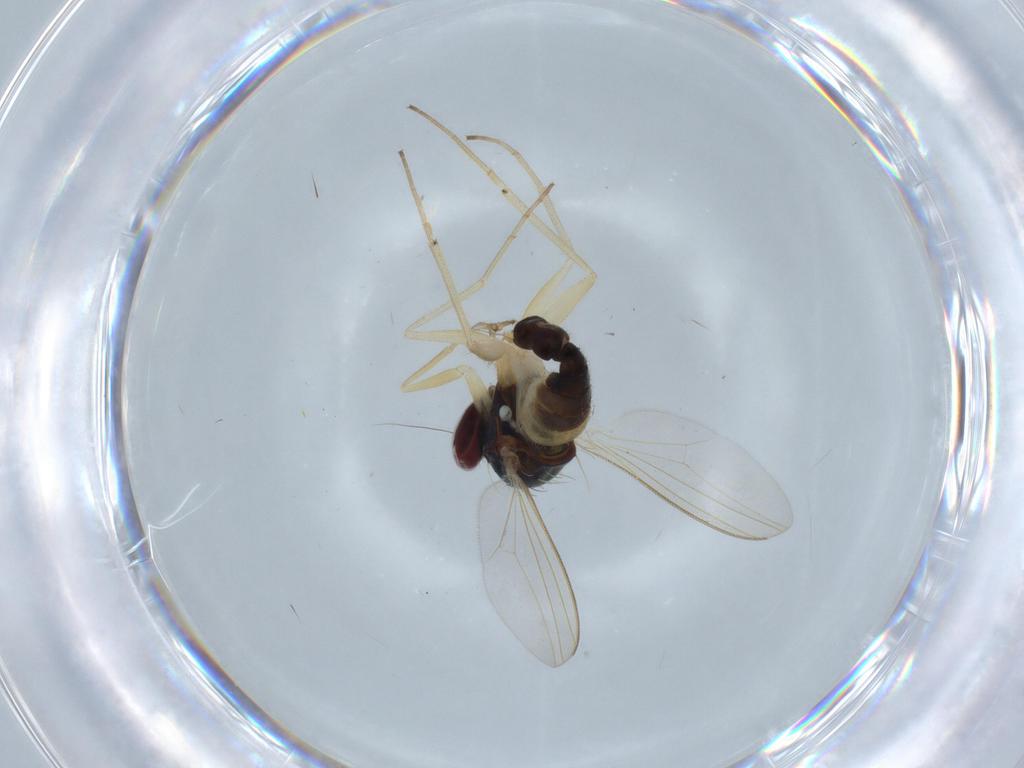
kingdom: Animalia
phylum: Arthropoda
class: Insecta
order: Diptera
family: Dolichopodidae
